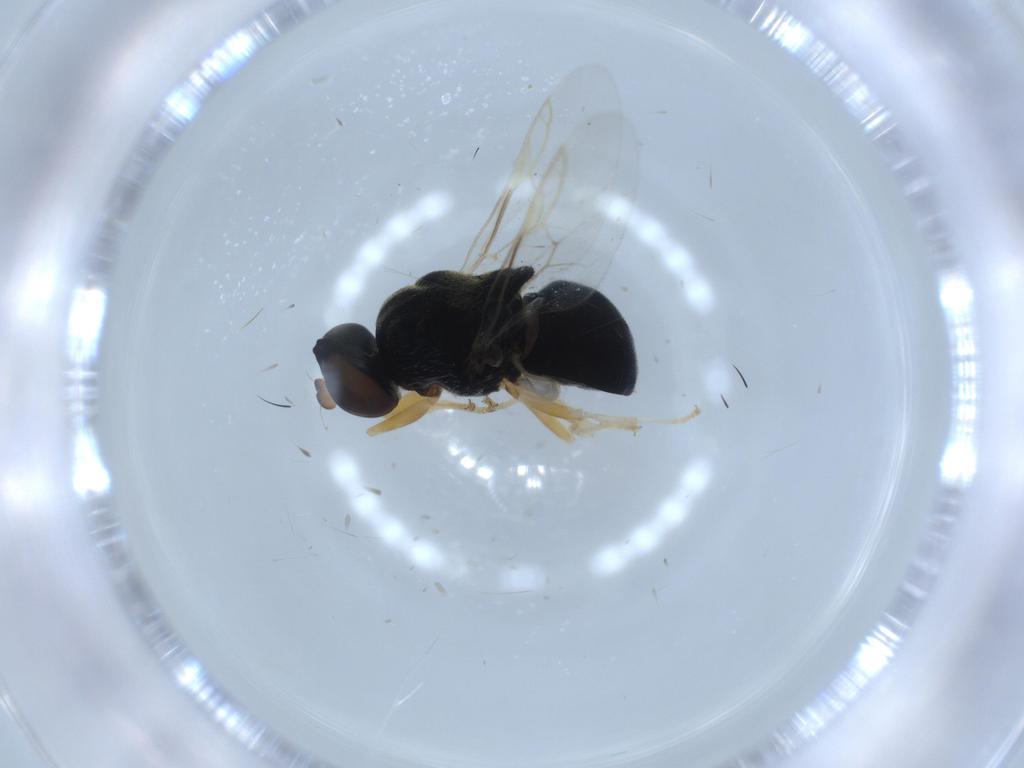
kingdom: Animalia
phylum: Arthropoda
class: Insecta
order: Diptera
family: Stratiomyidae
